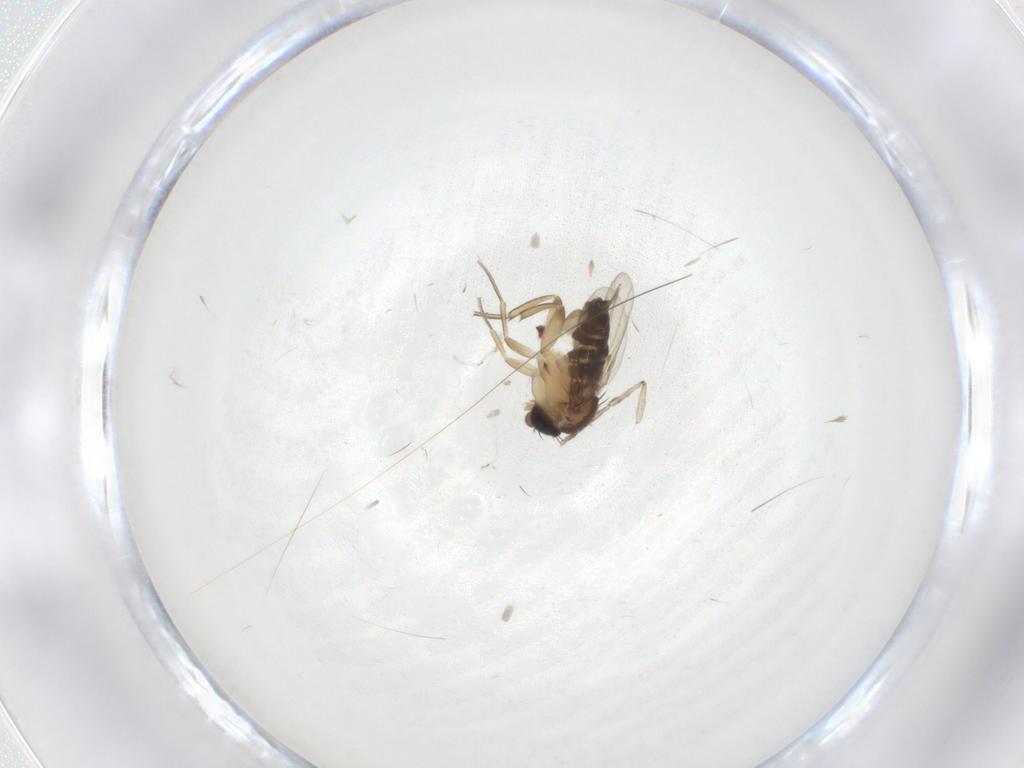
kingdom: Animalia
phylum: Arthropoda
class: Insecta
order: Diptera
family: Psychodidae
